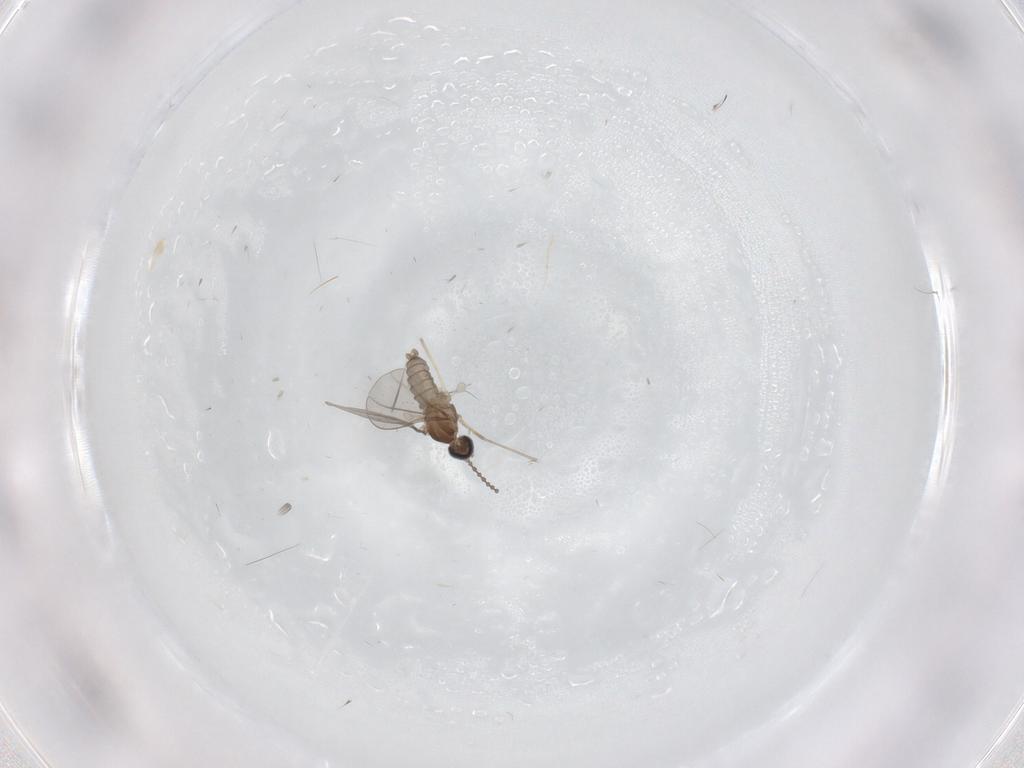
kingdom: Animalia
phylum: Arthropoda
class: Insecta
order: Diptera
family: Cecidomyiidae
